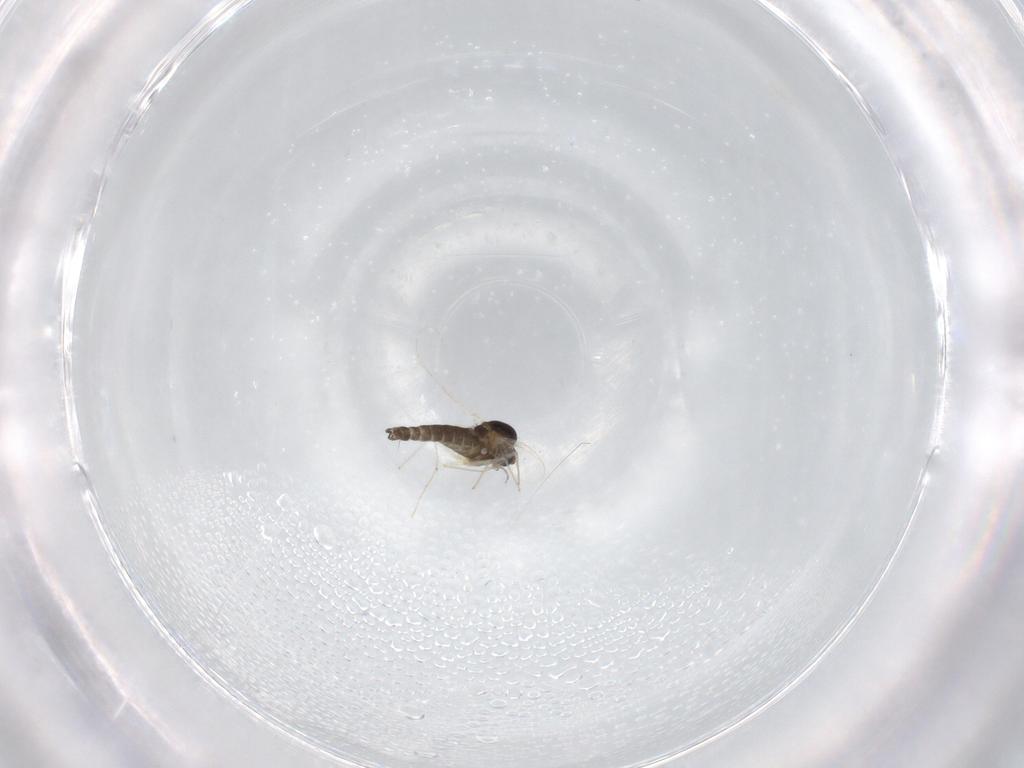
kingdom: Animalia
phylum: Arthropoda
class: Insecta
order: Diptera
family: Chironomidae
